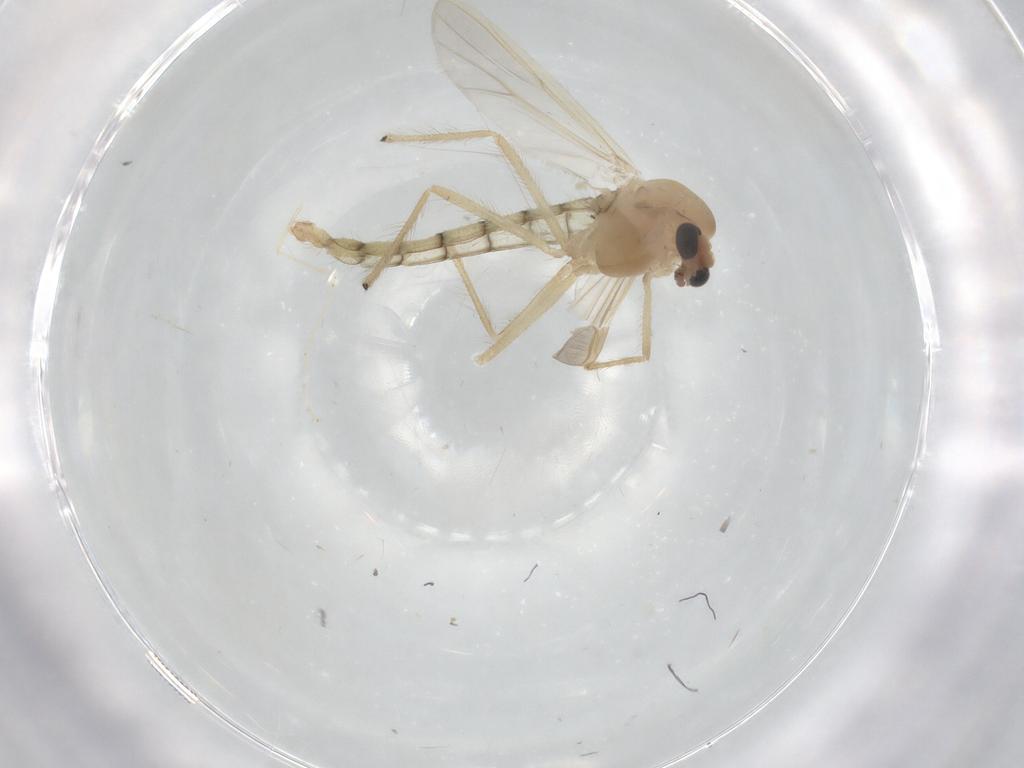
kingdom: Animalia
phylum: Arthropoda
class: Insecta
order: Diptera
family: Chironomidae
